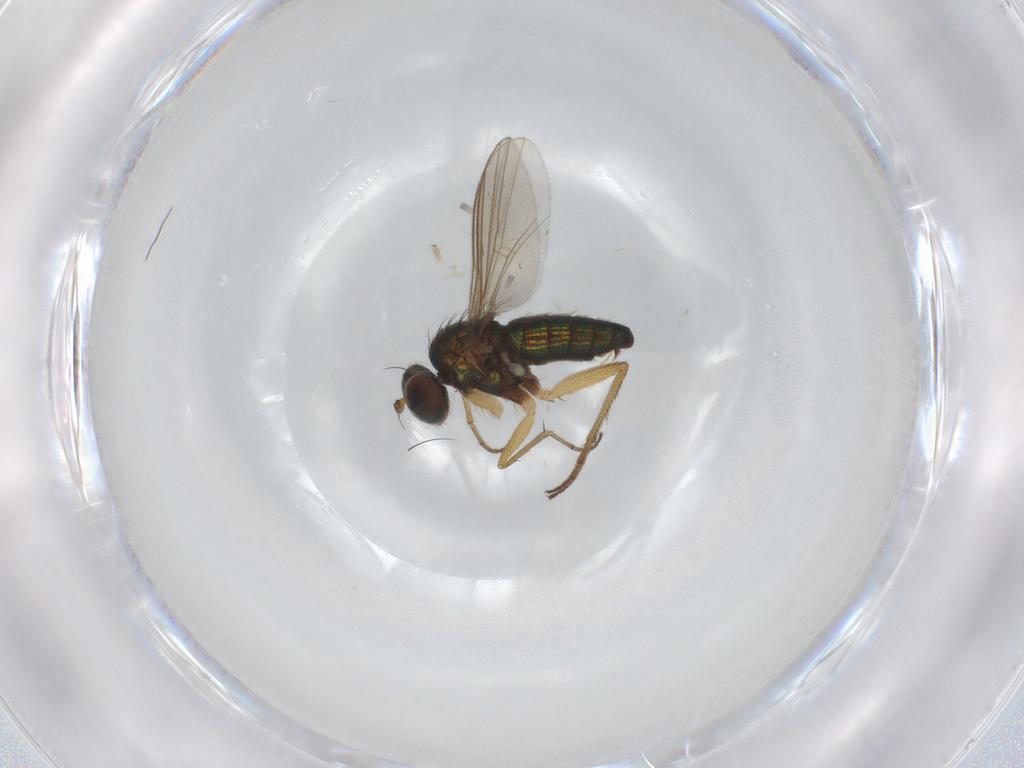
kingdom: Animalia
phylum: Arthropoda
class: Insecta
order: Diptera
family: Dolichopodidae
